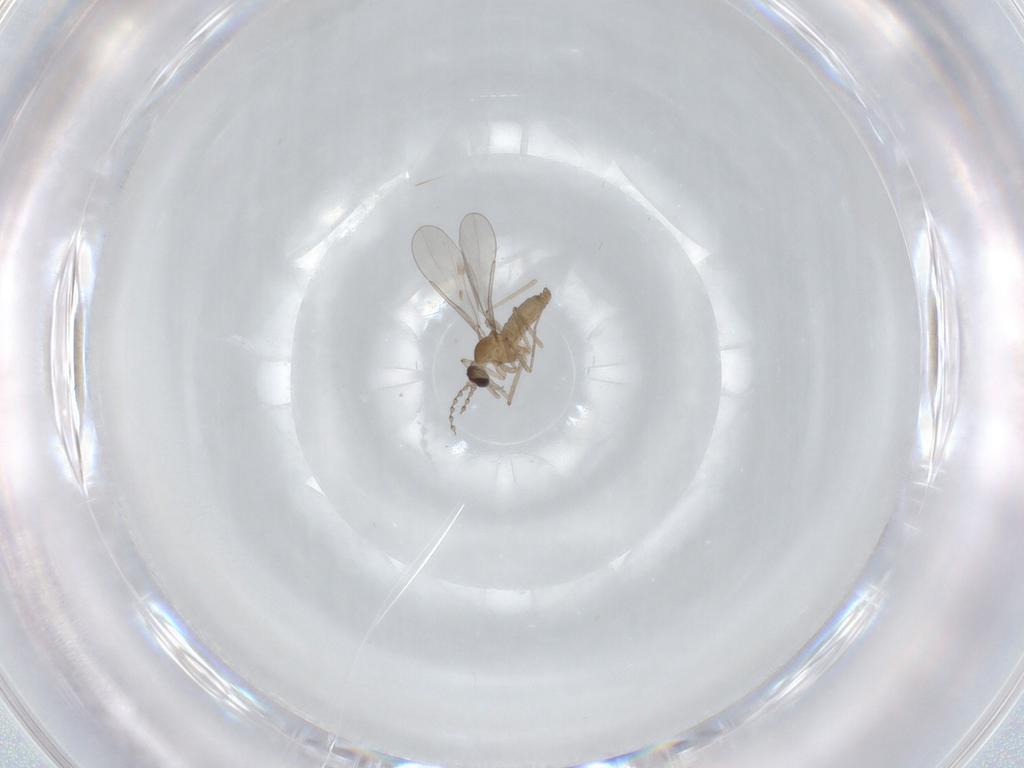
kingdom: Animalia
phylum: Arthropoda
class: Insecta
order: Diptera
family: Cecidomyiidae
